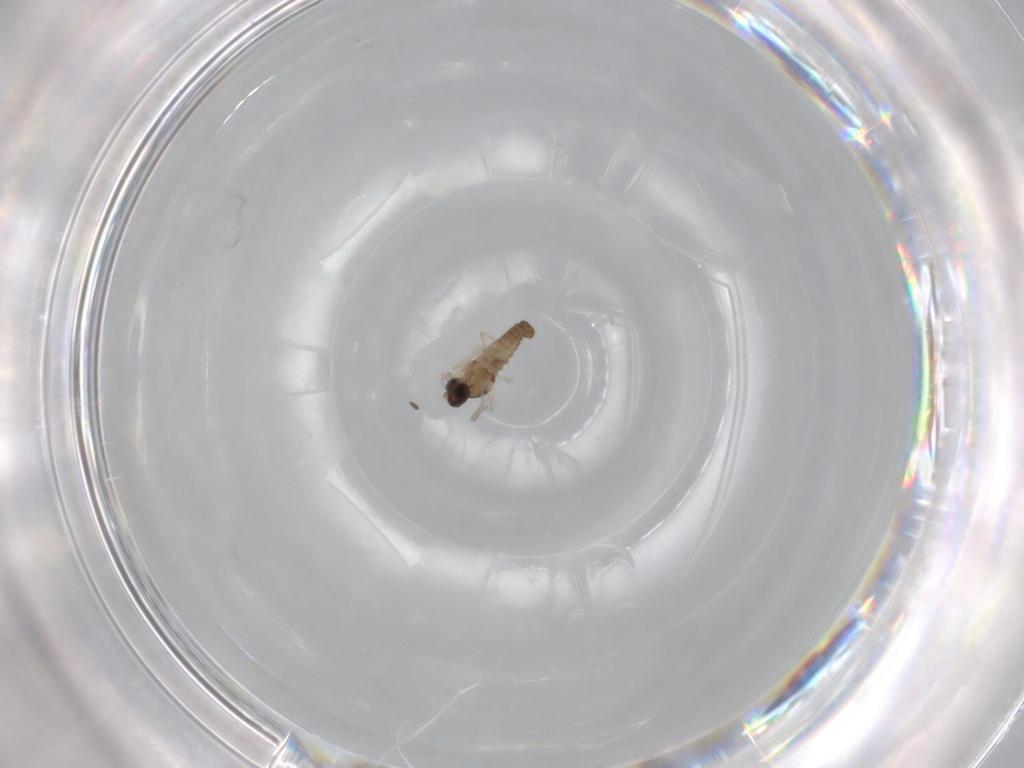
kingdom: Animalia
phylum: Arthropoda
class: Insecta
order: Diptera
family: Cecidomyiidae
